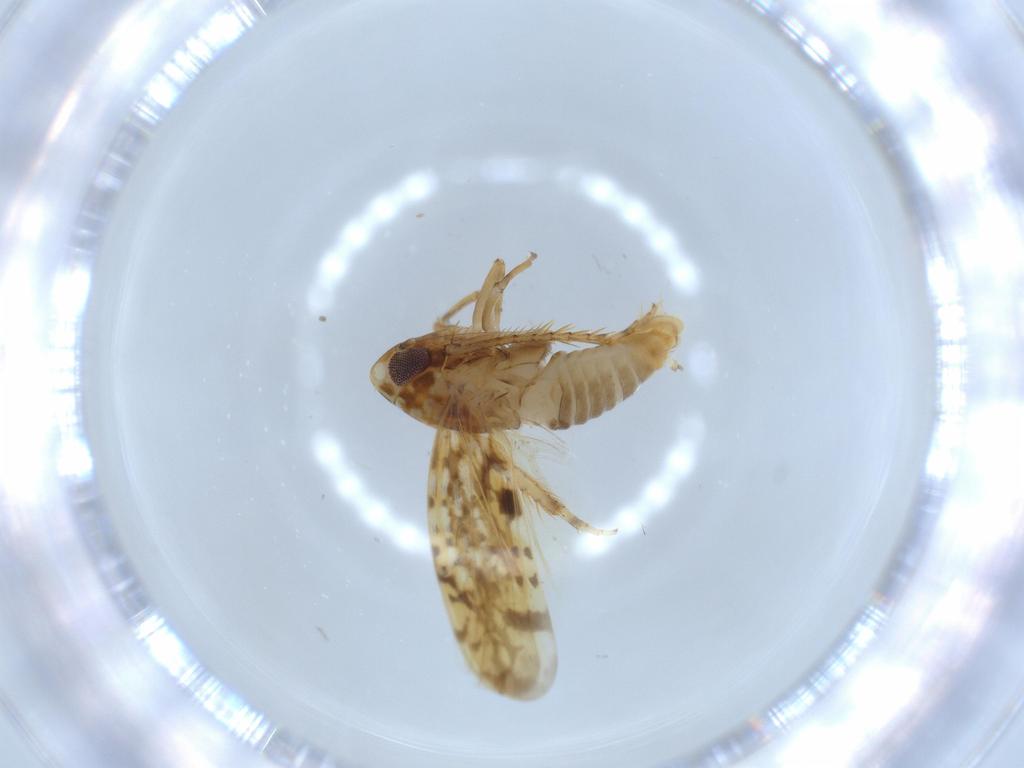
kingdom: Animalia
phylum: Arthropoda
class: Insecta
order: Hemiptera
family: Cicadellidae
